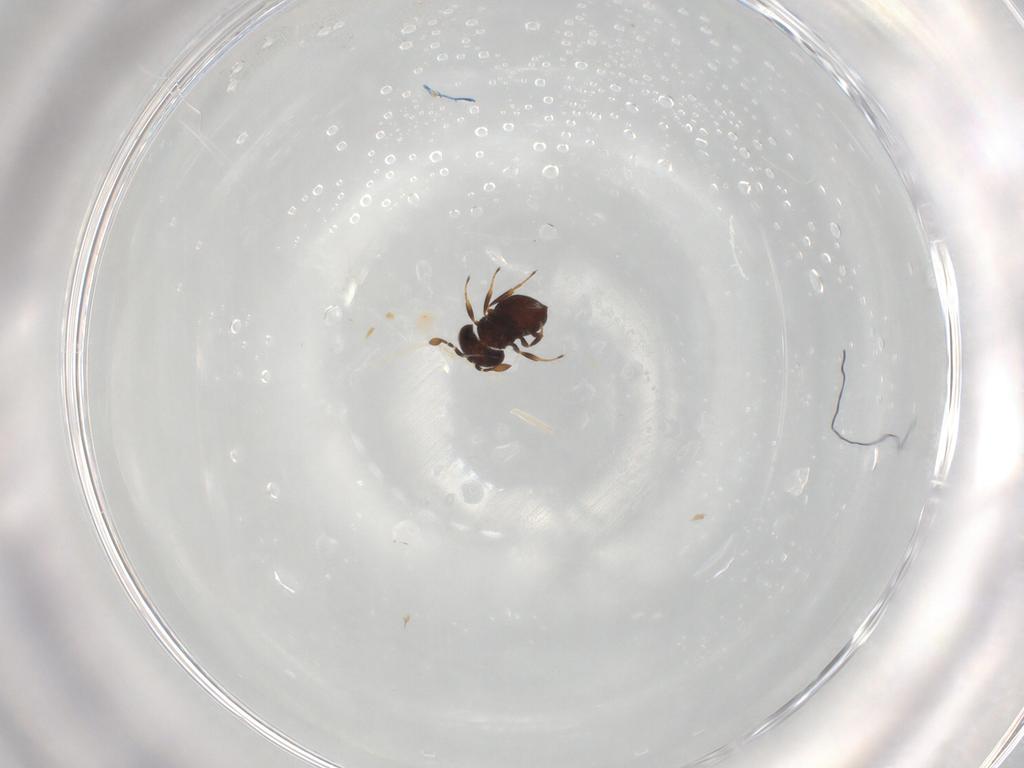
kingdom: Animalia
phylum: Arthropoda
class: Insecta
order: Hymenoptera
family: Scelionidae
